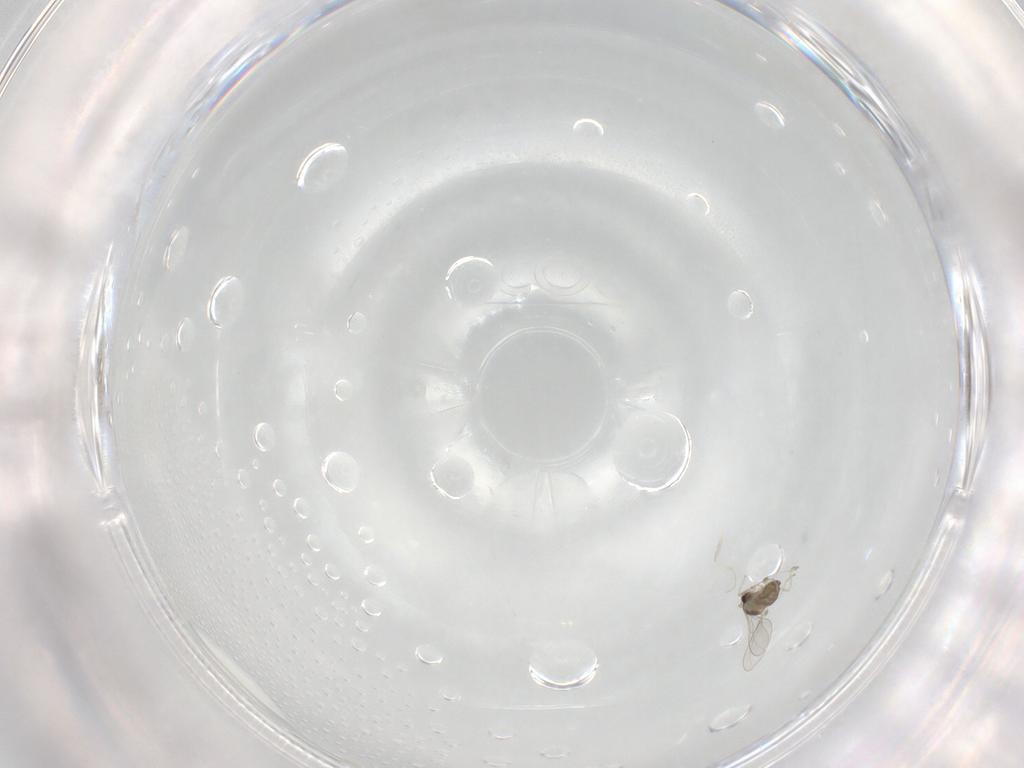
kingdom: Animalia
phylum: Arthropoda
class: Insecta
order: Diptera
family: Cecidomyiidae
